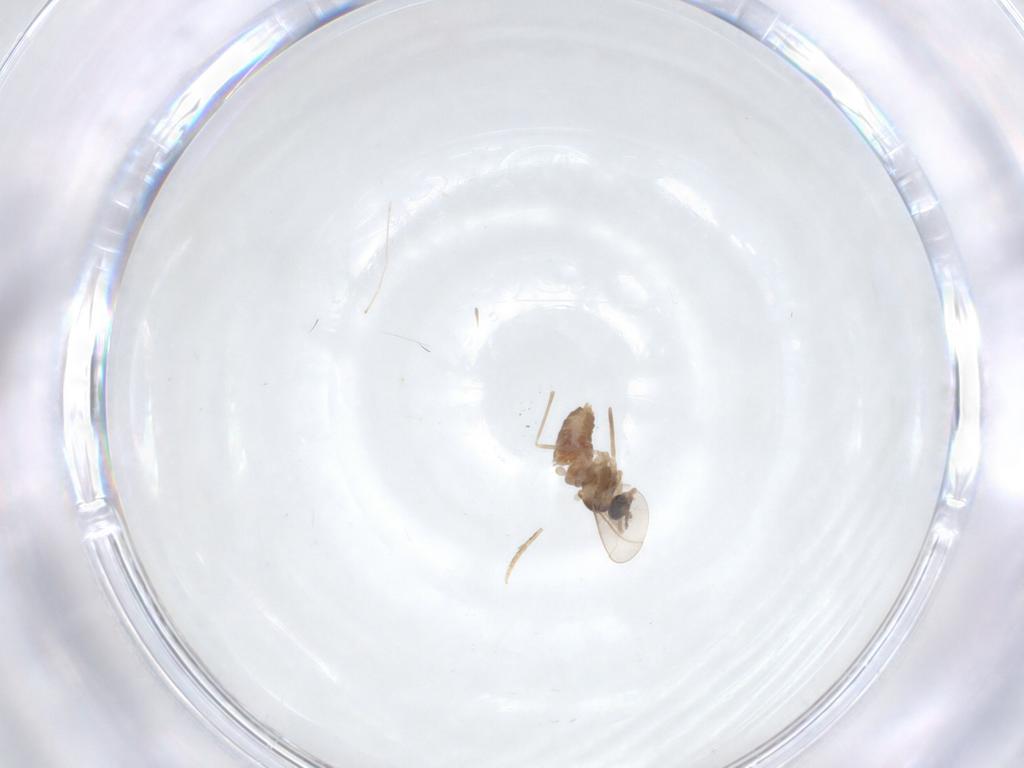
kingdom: Animalia
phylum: Arthropoda
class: Insecta
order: Diptera
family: Cecidomyiidae
